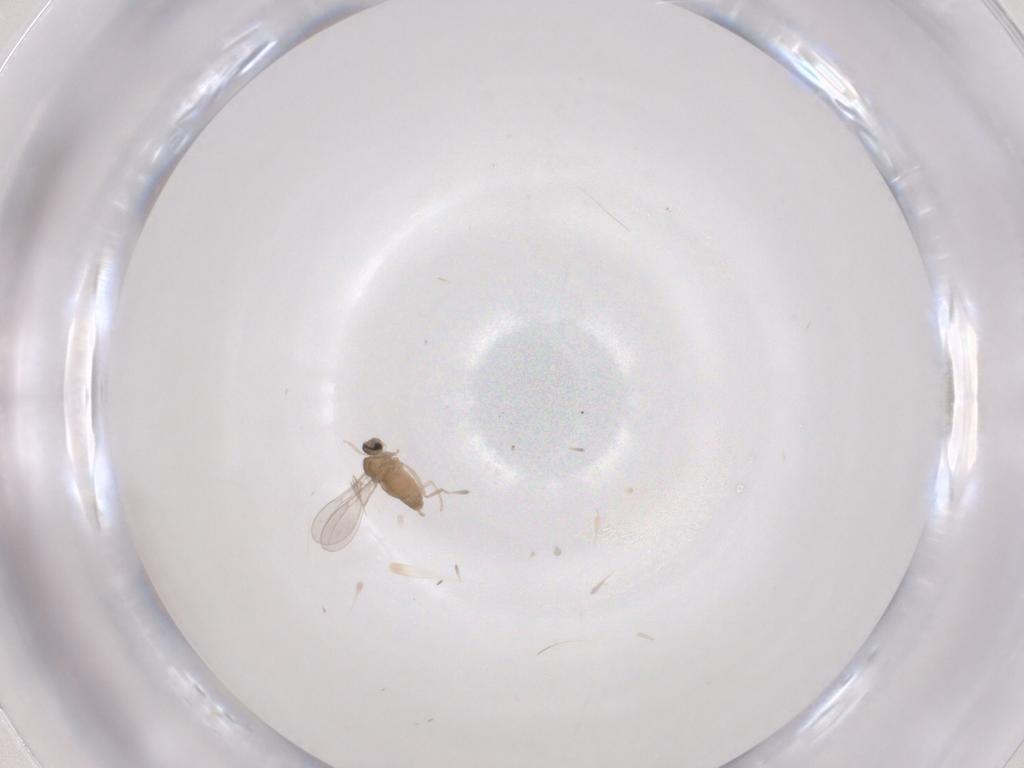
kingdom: Animalia
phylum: Arthropoda
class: Insecta
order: Diptera
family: Cecidomyiidae
